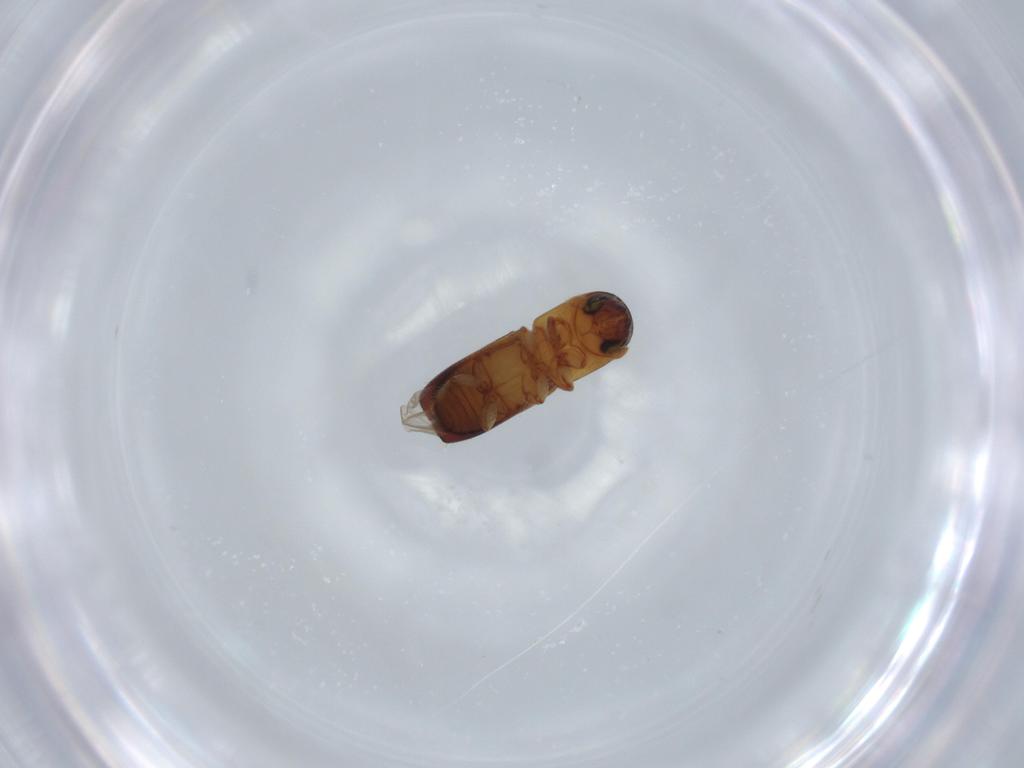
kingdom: Animalia
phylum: Arthropoda
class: Insecta
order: Coleoptera
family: Curculionidae
